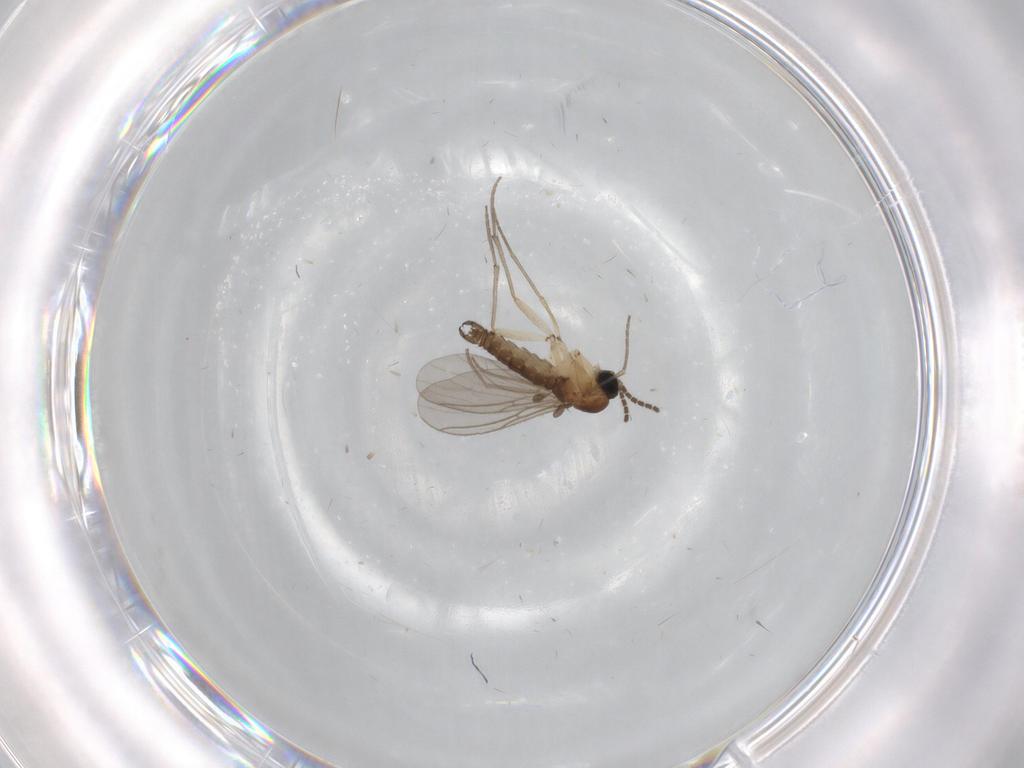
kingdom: Animalia
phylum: Arthropoda
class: Insecta
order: Diptera
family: Sciaridae
